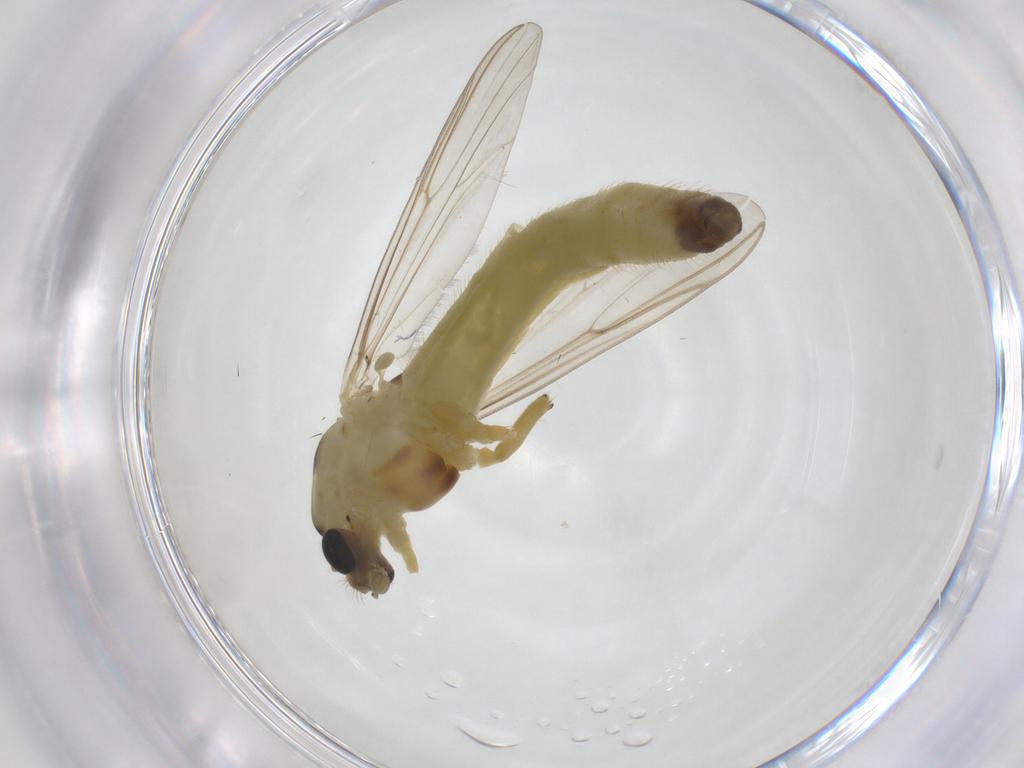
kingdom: Animalia
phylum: Arthropoda
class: Insecta
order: Diptera
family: Chironomidae
